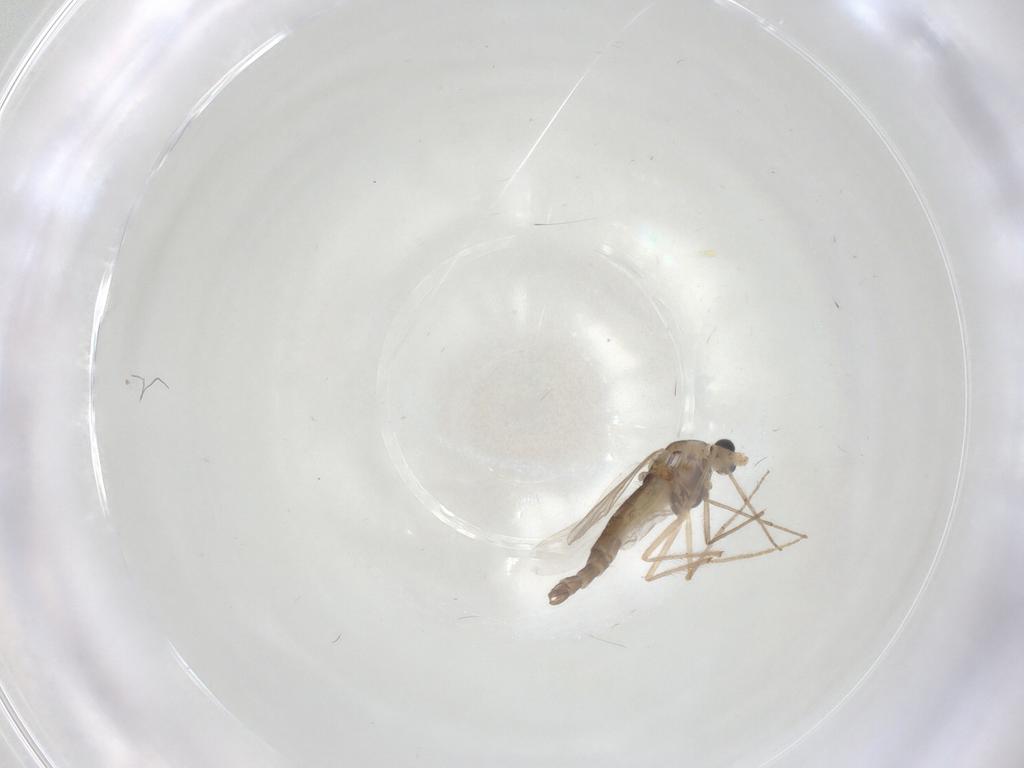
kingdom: Animalia
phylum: Arthropoda
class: Insecta
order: Diptera
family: Chironomidae
